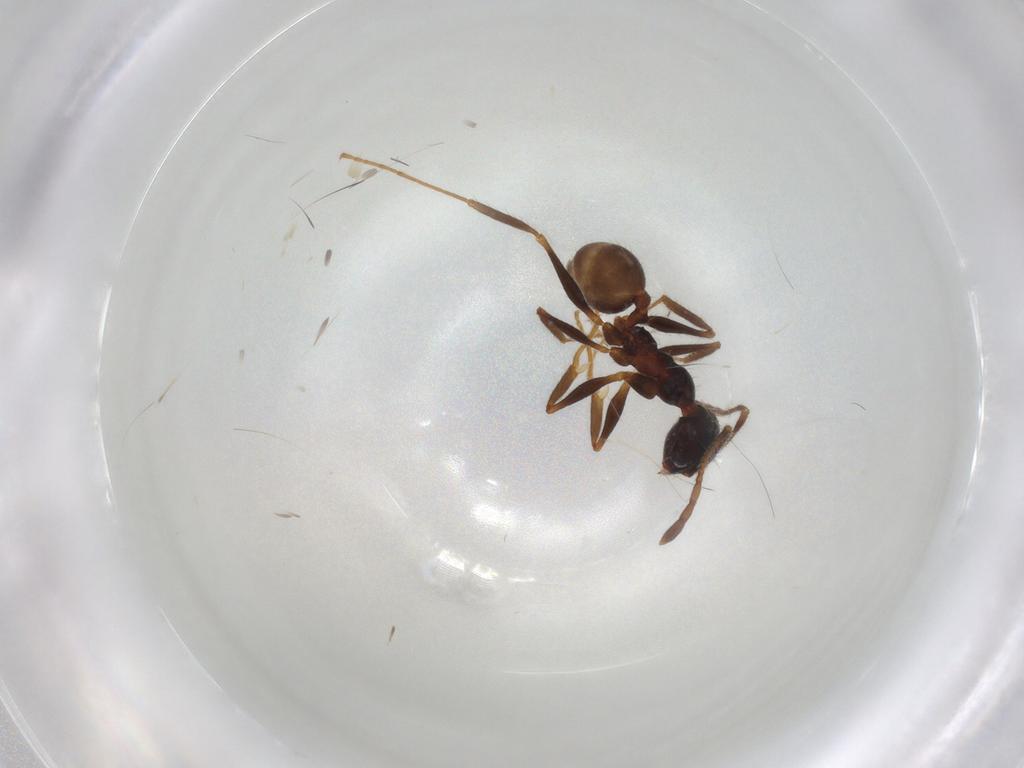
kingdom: Animalia
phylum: Arthropoda
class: Insecta
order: Hymenoptera
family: Formicidae
